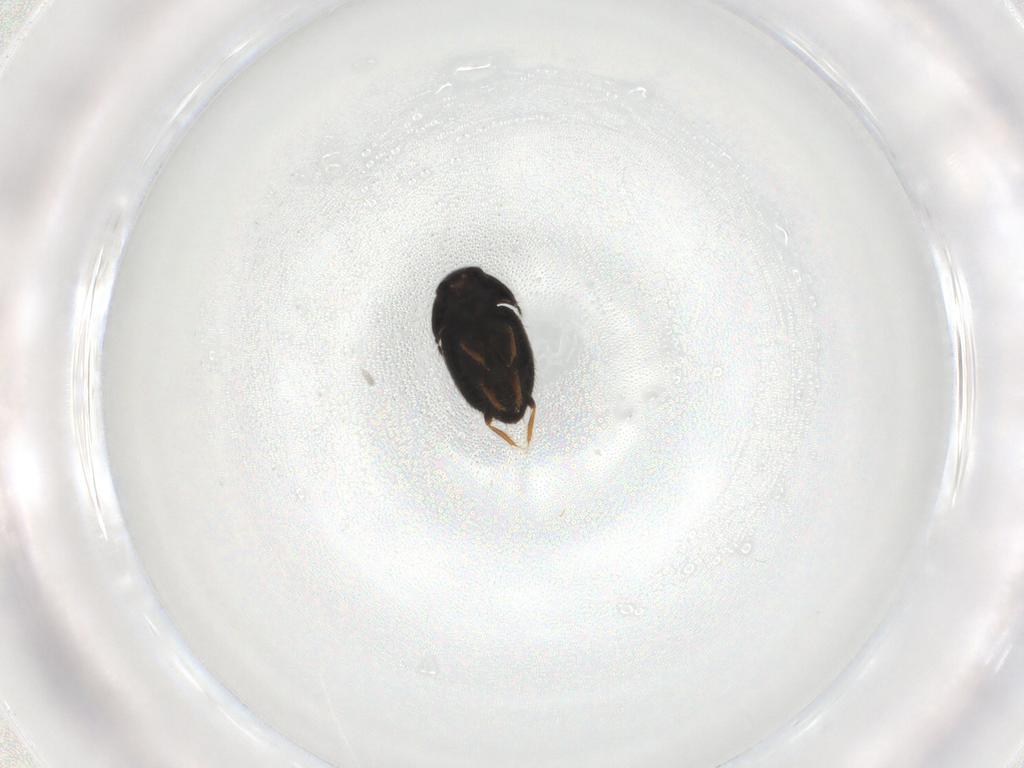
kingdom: Animalia
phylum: Arthropoda
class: Insecta
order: Coleoptera
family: Ptiliidae
